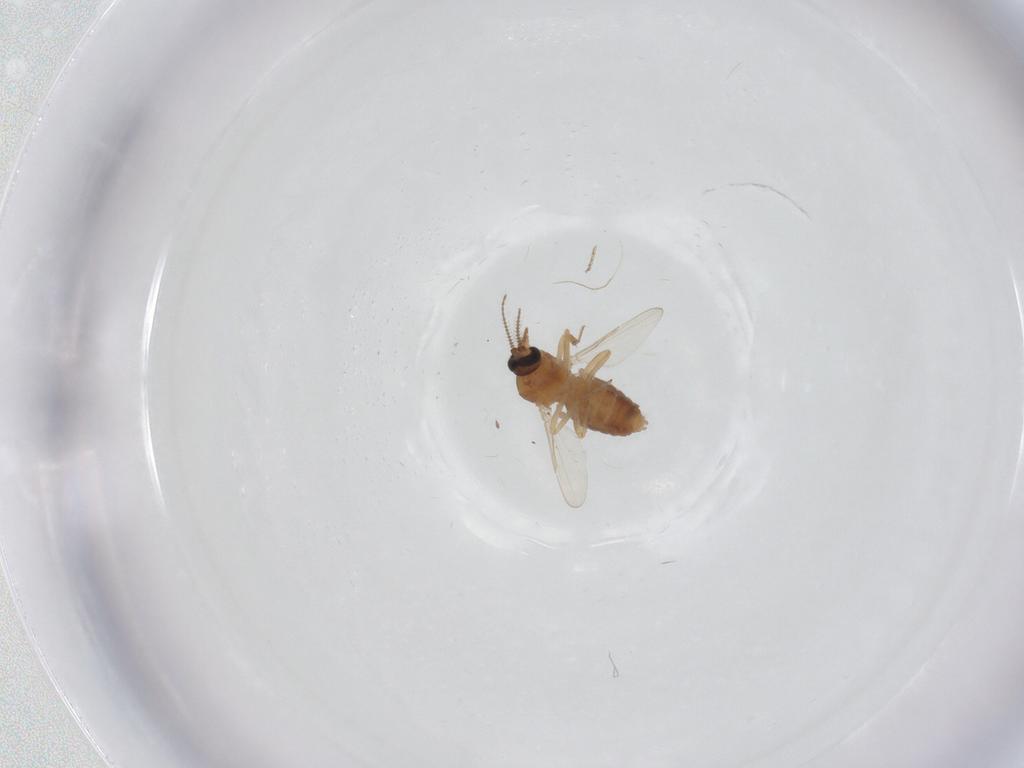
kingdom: Animalia
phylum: Arthropoda
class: Insecta
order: Diptera
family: Ceratopogonidae
